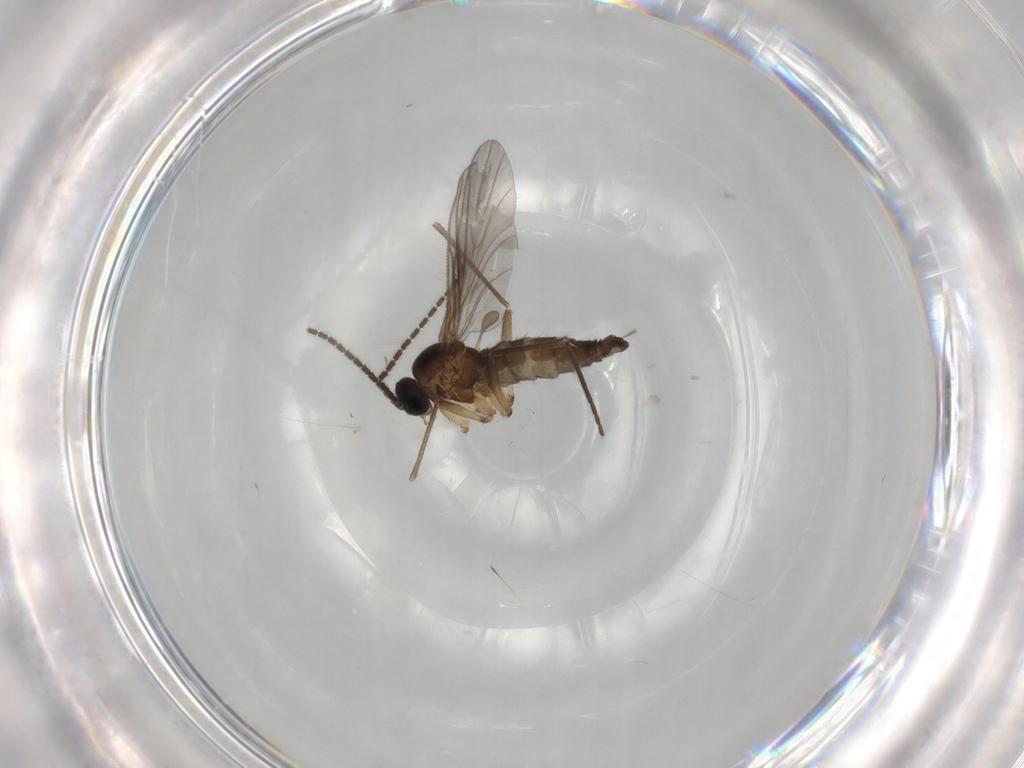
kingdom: Animalia
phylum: Arthropoda
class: Insecta
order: Diptera
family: Sciaridae
